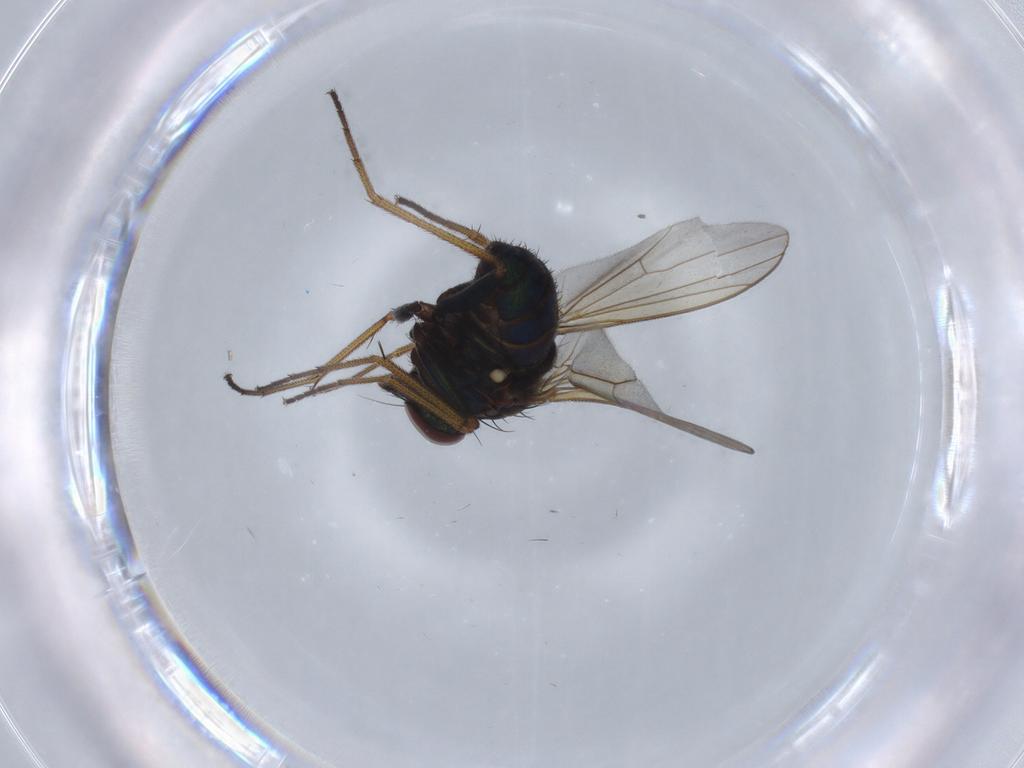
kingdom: Animalia
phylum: Arthropoda
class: Insecta
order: Diptera
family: Dolichopodidae
